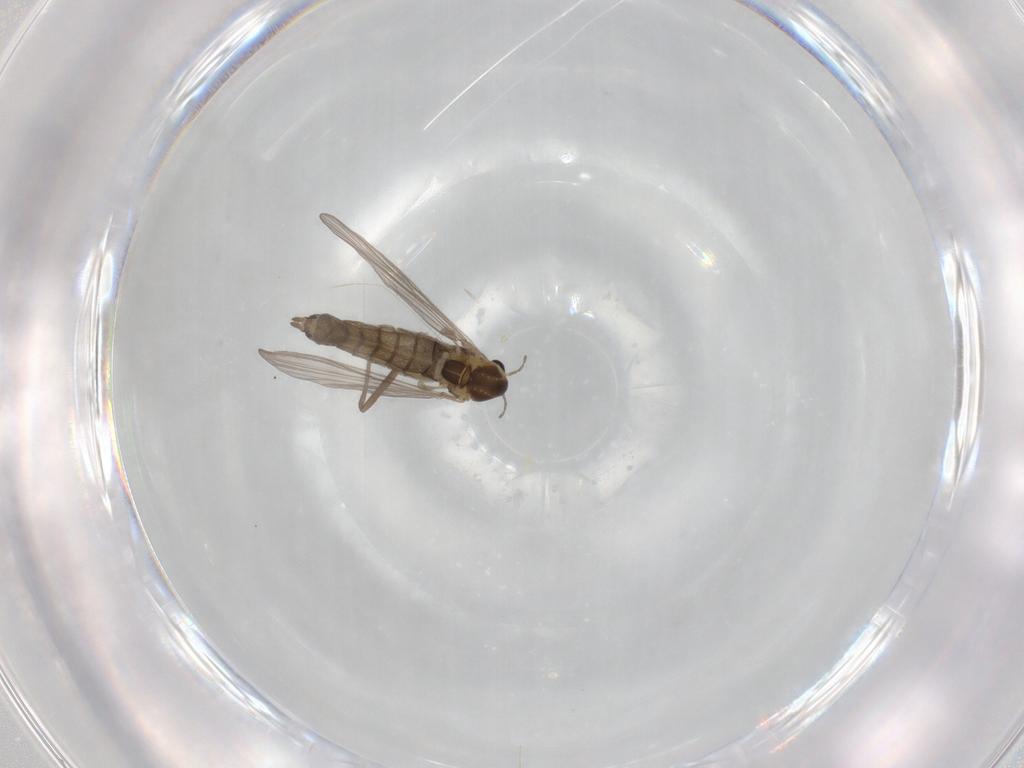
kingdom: Animalia
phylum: Arthropoda
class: Insecta
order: Diptera
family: Chironomidae
